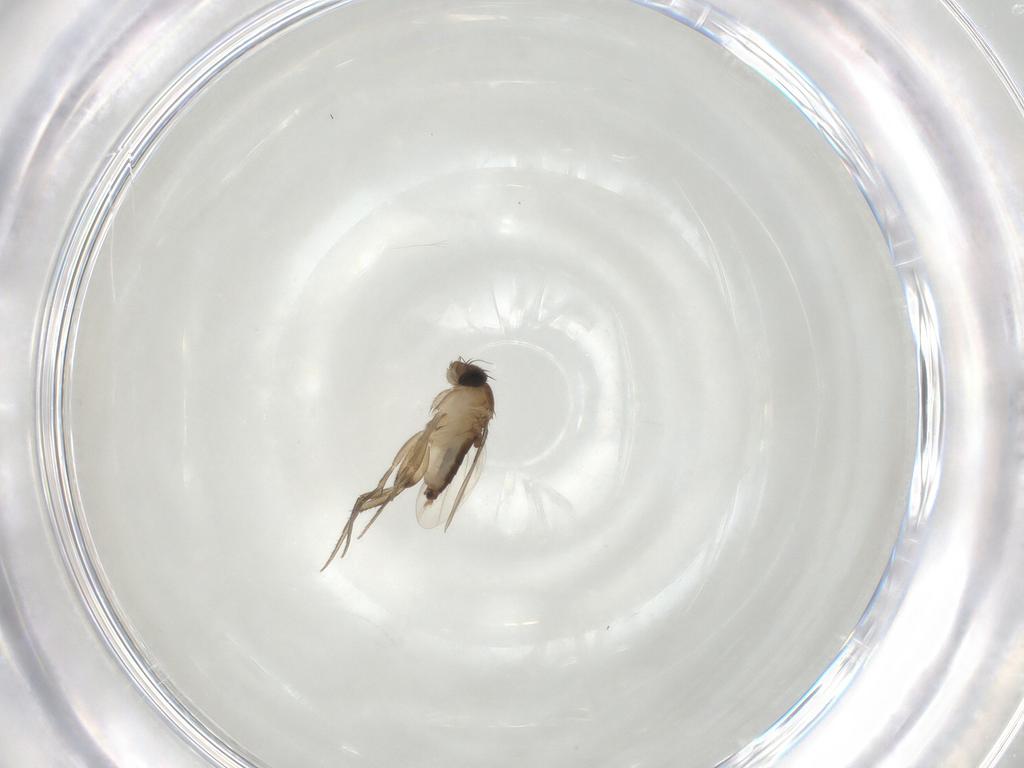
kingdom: Animalia
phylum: Arthropoda
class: Insecta
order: Diptera
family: Phoridae
